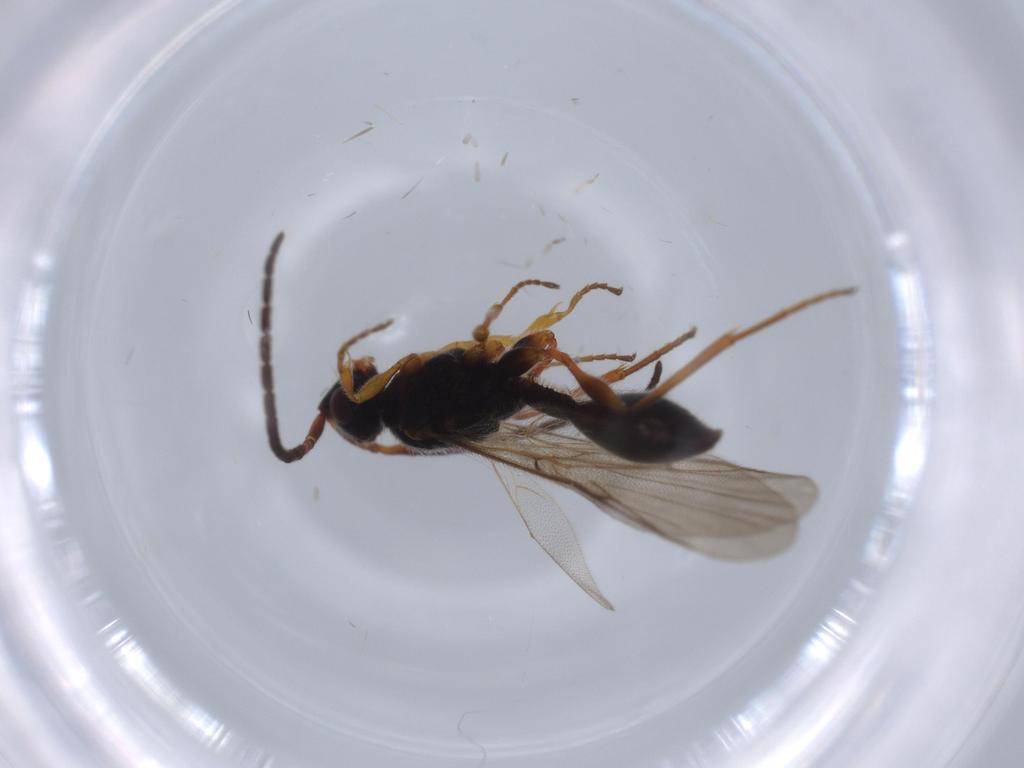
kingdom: Animalia
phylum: Arthropoda
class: Insecta
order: Hymenoptera
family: Ichneumonidae
